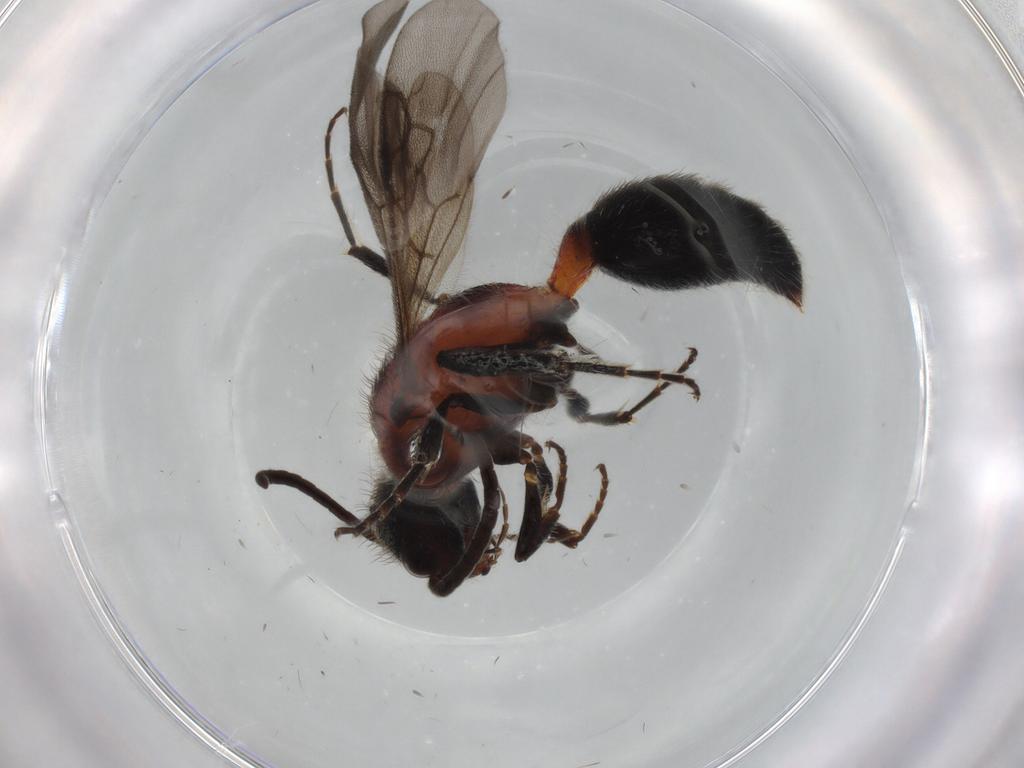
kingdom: Animalia
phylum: Arthropoda
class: Insecta
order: Hymenoptera
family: Mutillidae
